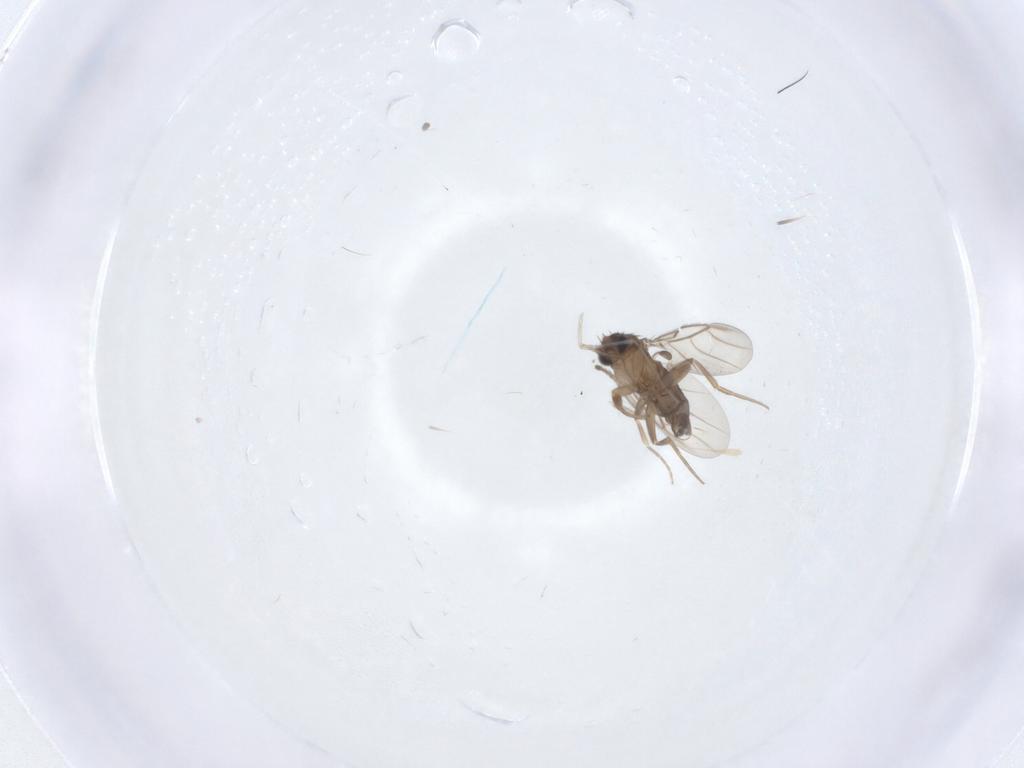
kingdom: Animalia
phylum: Arthropoda
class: Insecta
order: Diptera
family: Phoridae
